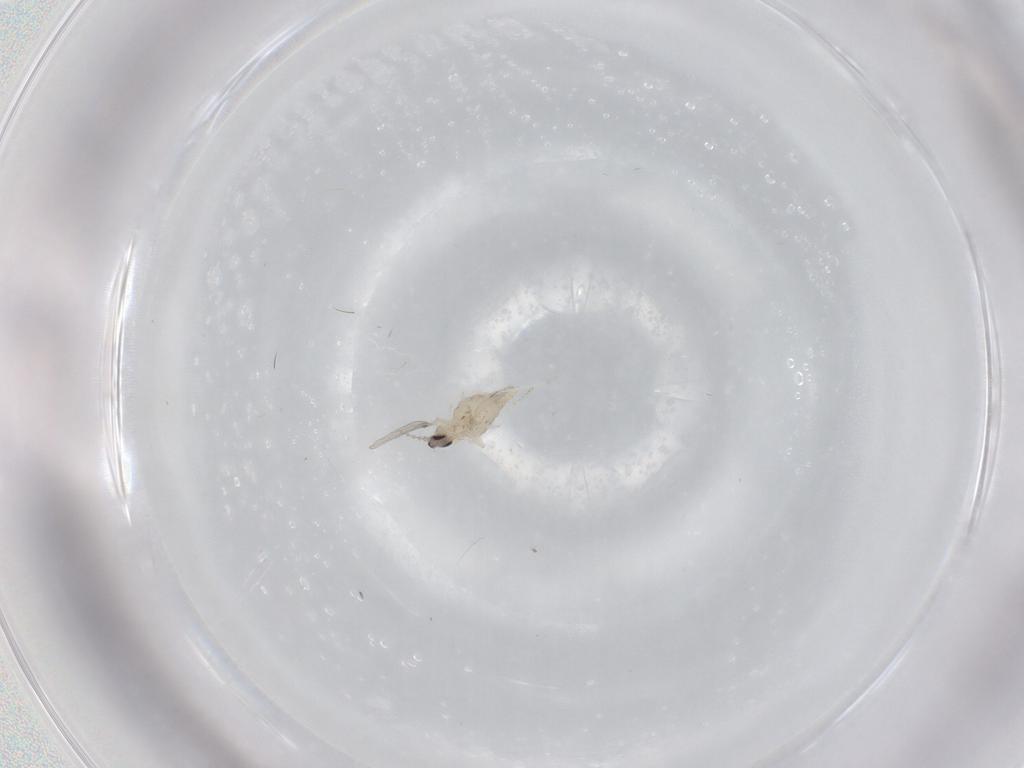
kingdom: Animalia
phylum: Arthropoda
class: Insecta
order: Diptera
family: Cecidomyiidae
